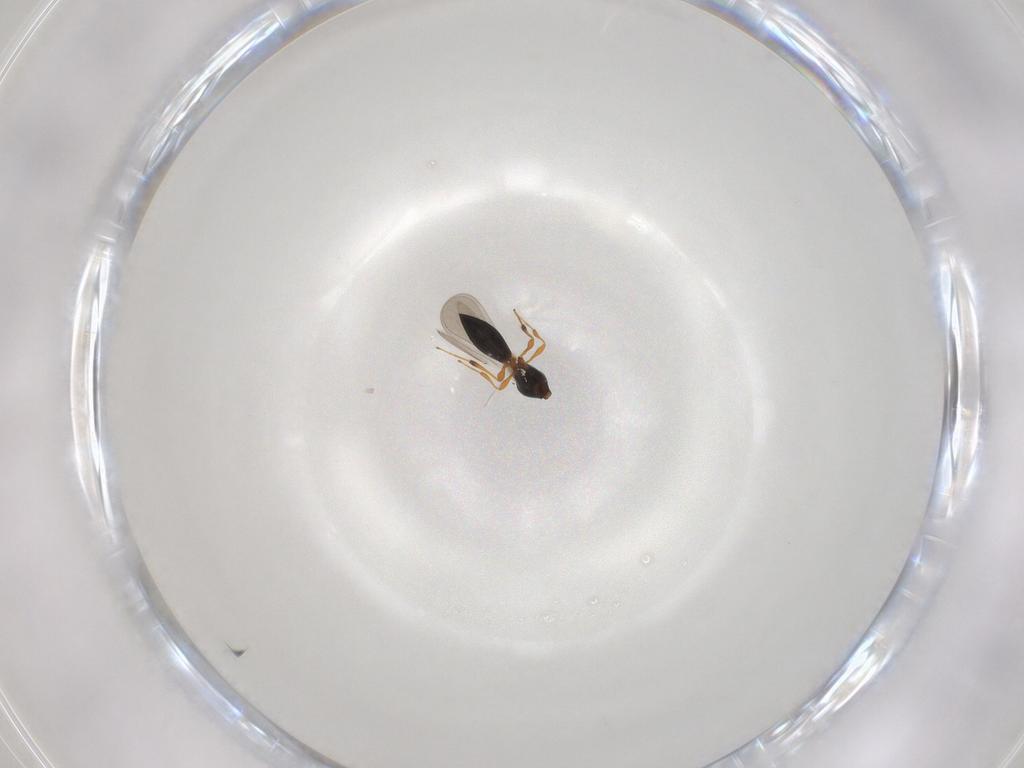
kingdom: Animalia
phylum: Arthropoda
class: Insecta
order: Hymenoptera
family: Platygastridae
